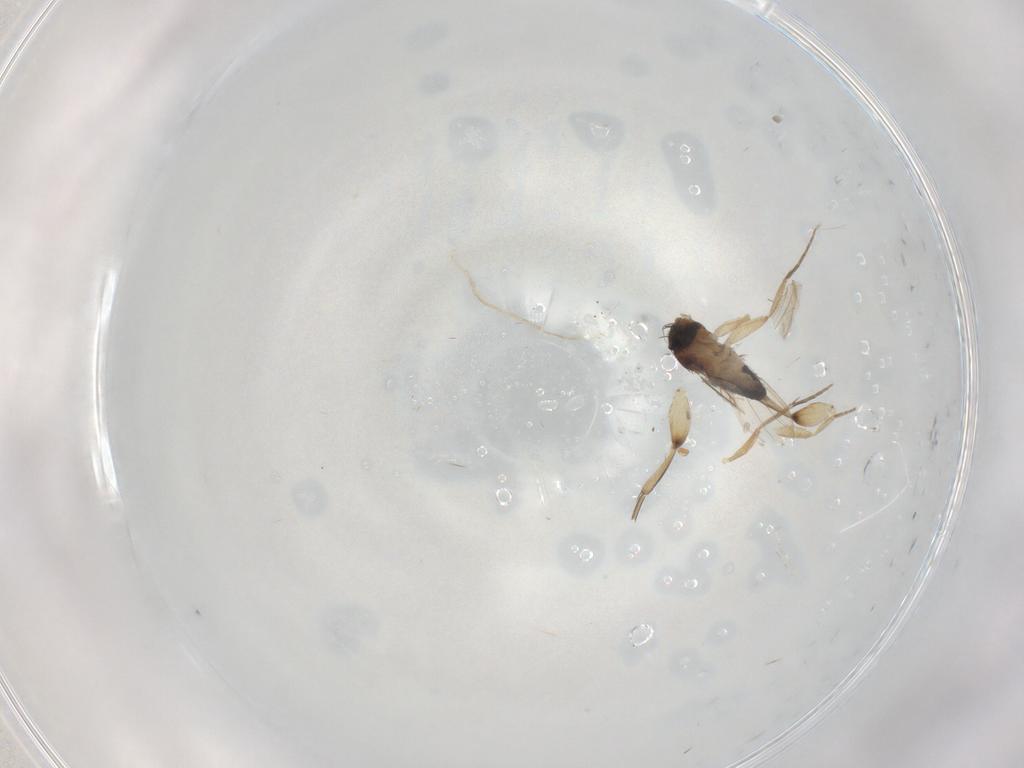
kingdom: Animalia
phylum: Arthropoda
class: Insecta
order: Diptera
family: Phoridae
